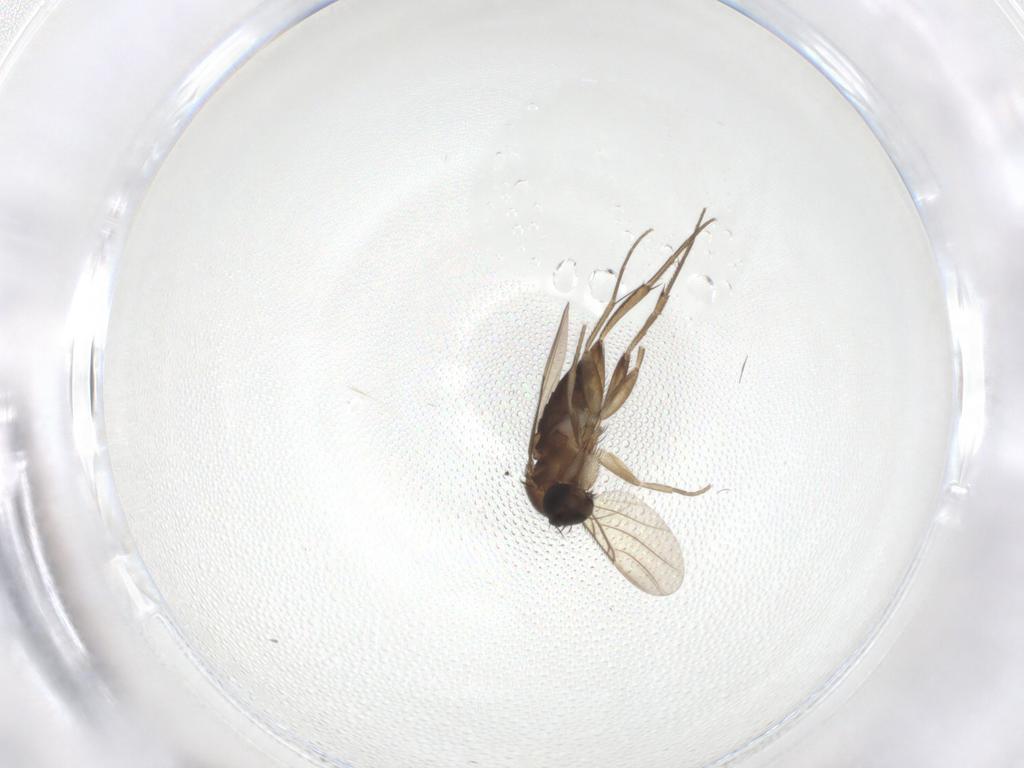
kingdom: Animalia
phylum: Arthropoda
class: Insecta
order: Diptera
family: Phoridae
